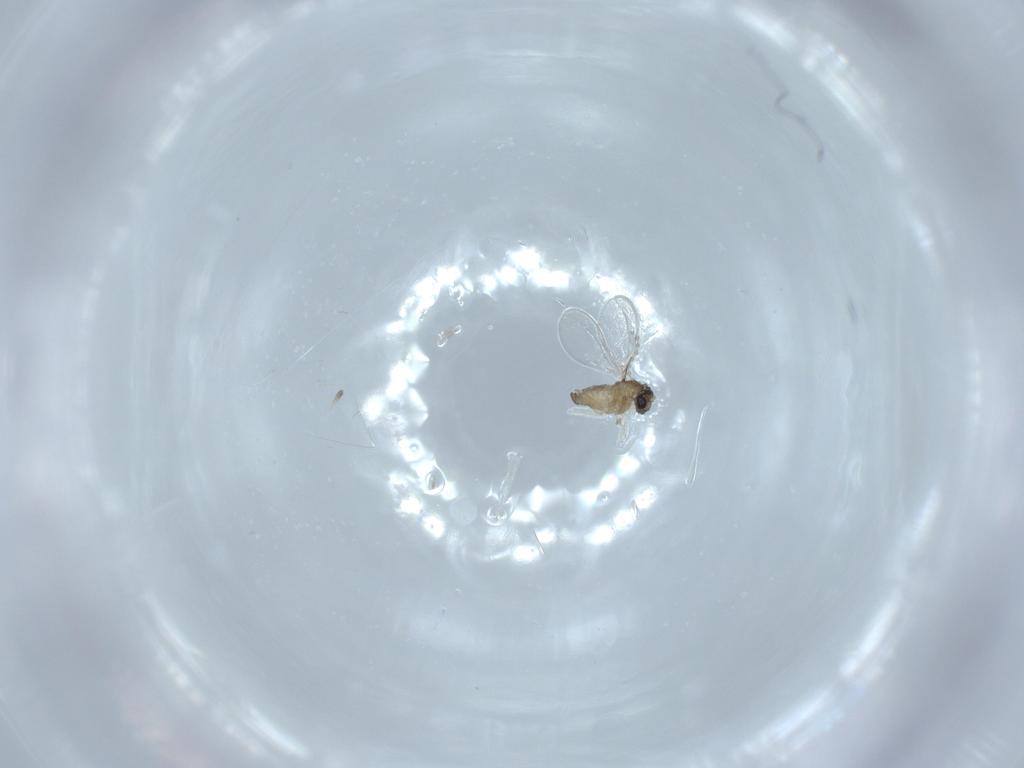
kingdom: Animalia
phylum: Arthropoda
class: Insecta
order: Diptera
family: Cecidomyiidae
